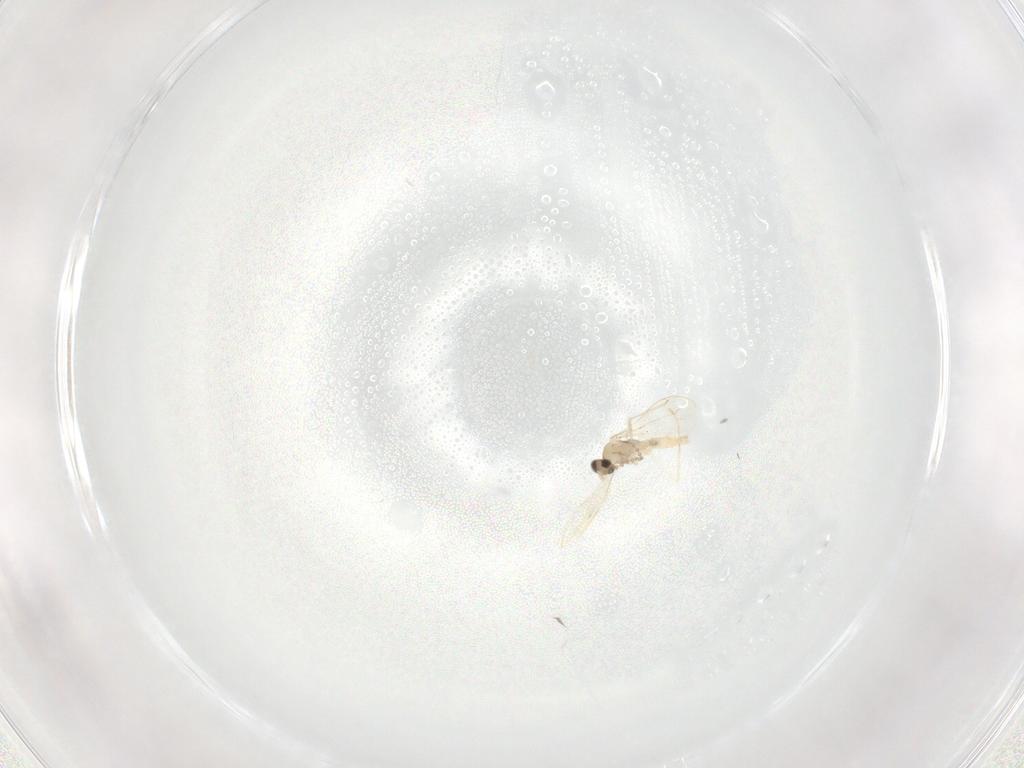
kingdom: Animalia
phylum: Arthropoda
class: Insecta
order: Diptera
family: Cecidomyiidae
